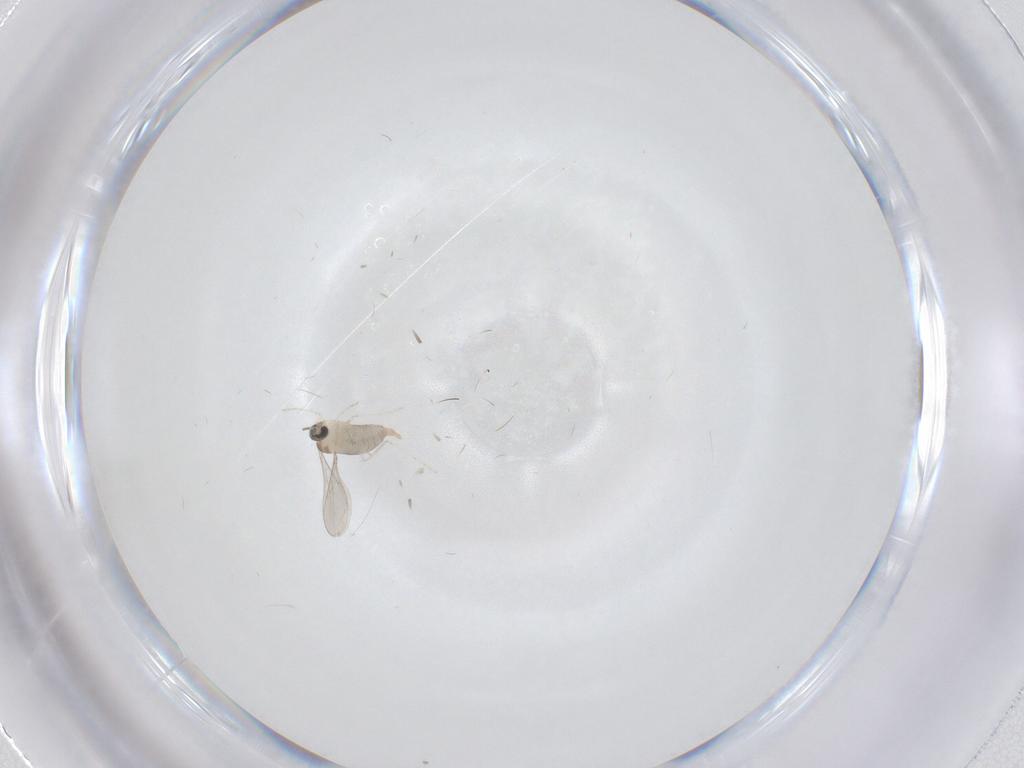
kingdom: Animalia
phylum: Arthropoda
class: Insecta
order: Diptera
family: Cecidomyiidae
